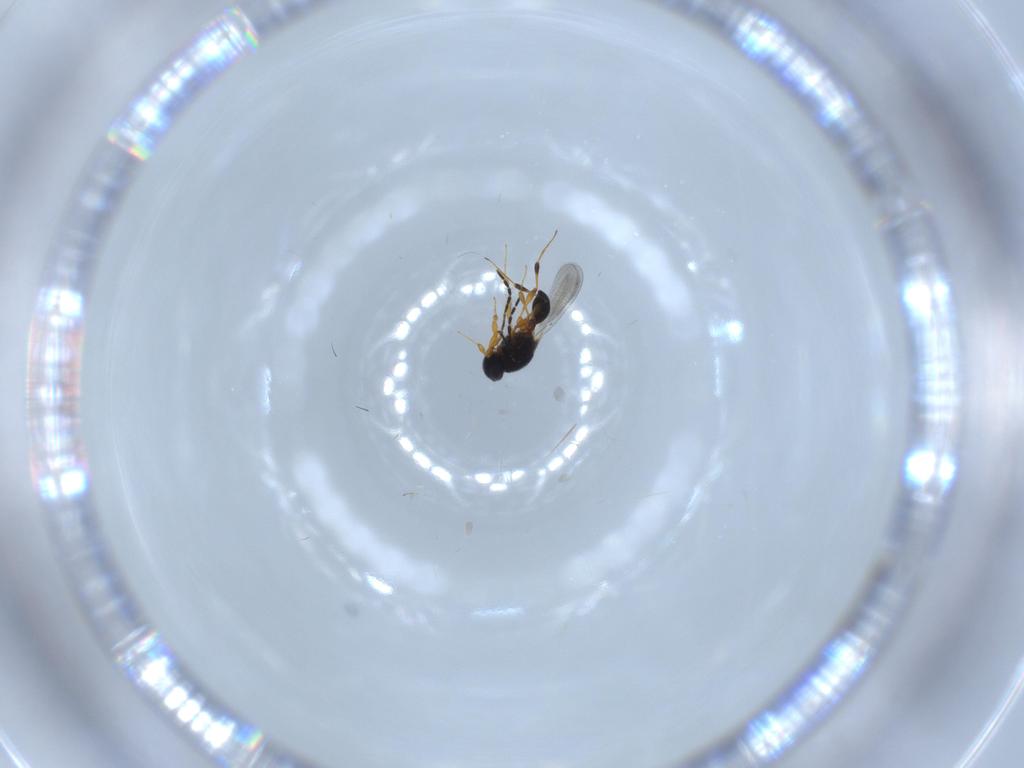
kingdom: Animalia
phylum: Arthropoda
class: Insecta
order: Hymenoptera
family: Platygastridae
